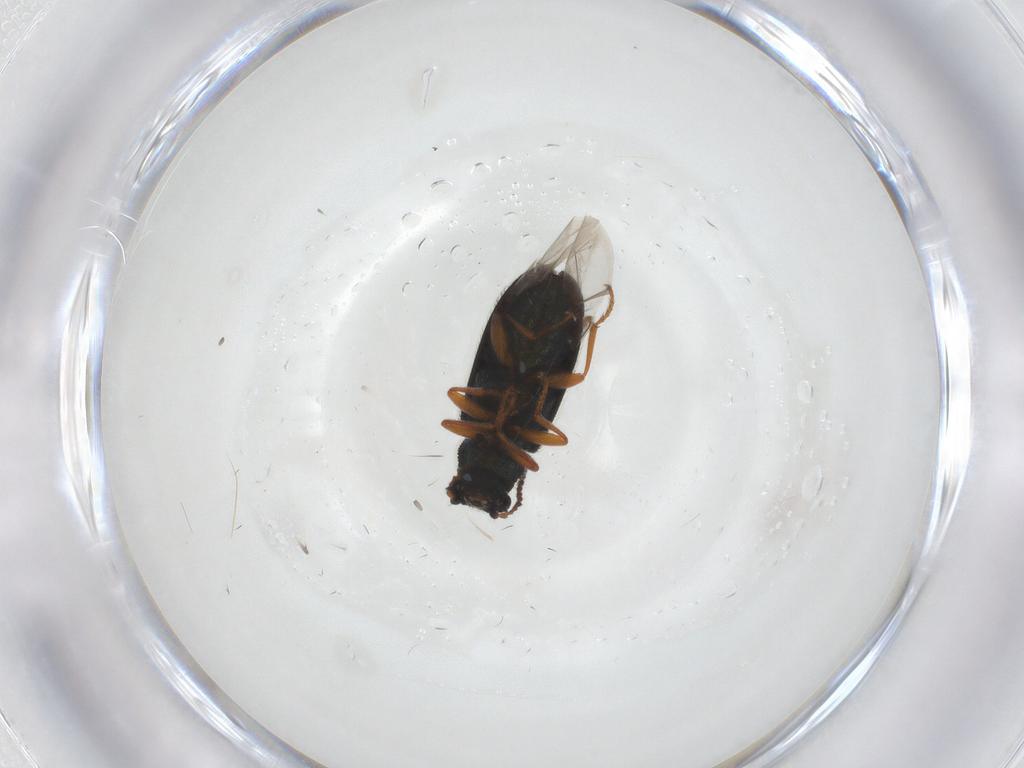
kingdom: Animalia
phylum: Arthropoda
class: Insecta
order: Coleoptera
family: Melyridae
